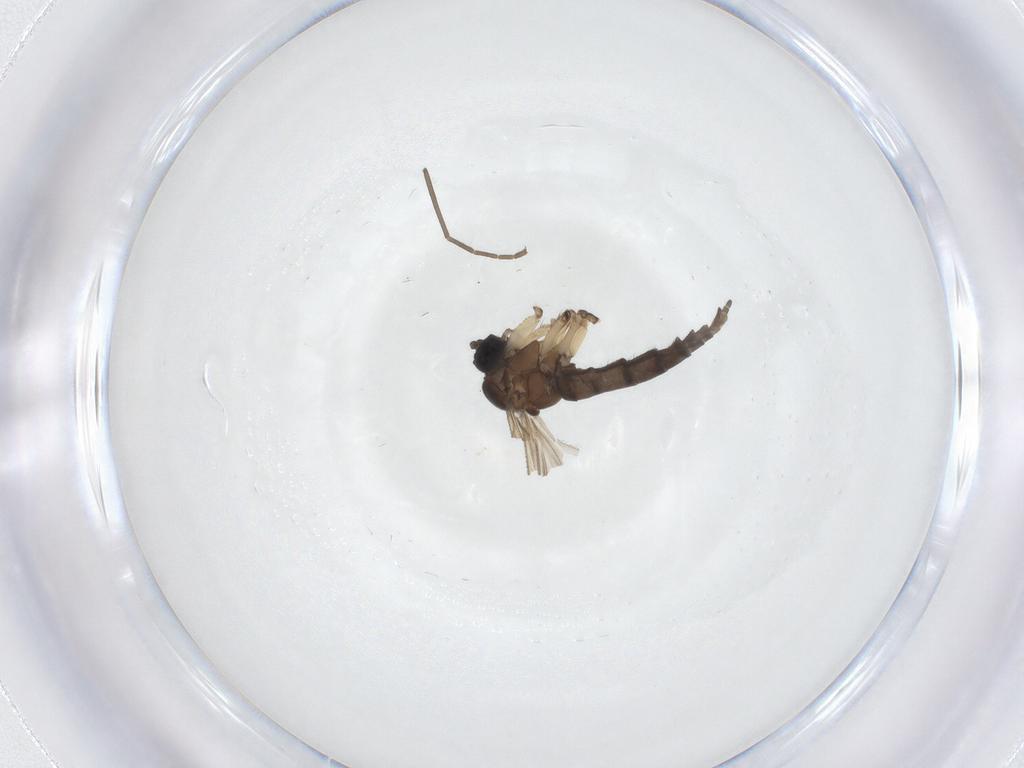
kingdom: Animalia
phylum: Arthropoda
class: Insecta
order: Diptera
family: Sciaridae
